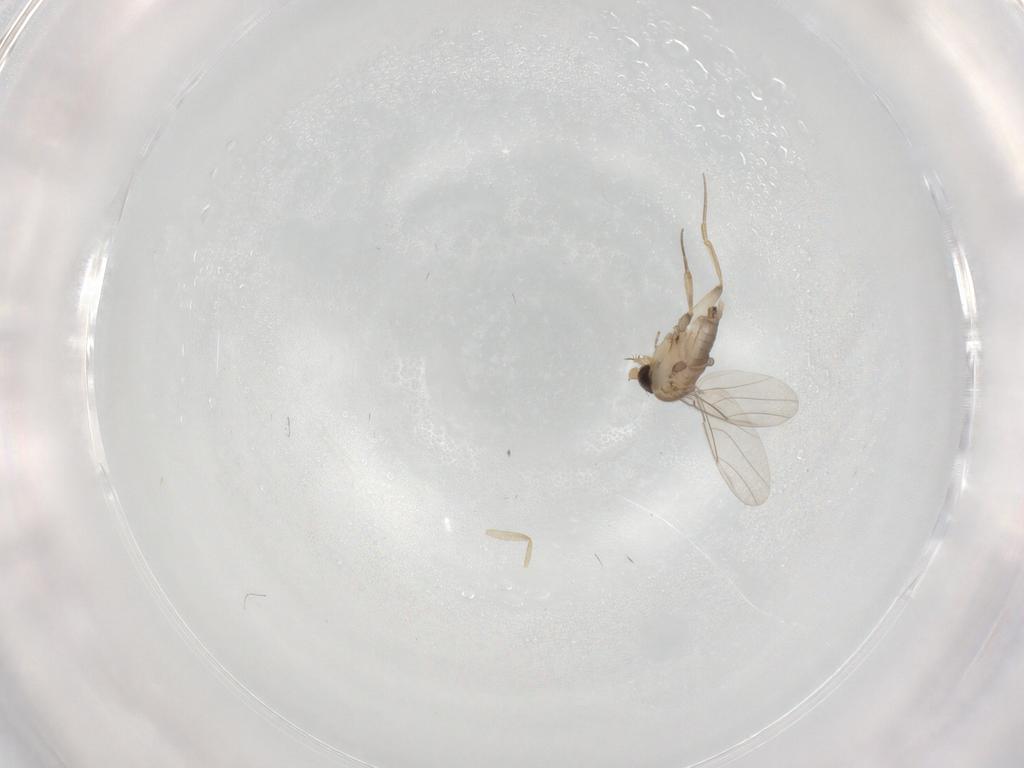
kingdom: Animalia
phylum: Arthropoda
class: Insecta
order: Diptera
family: Phoridae
